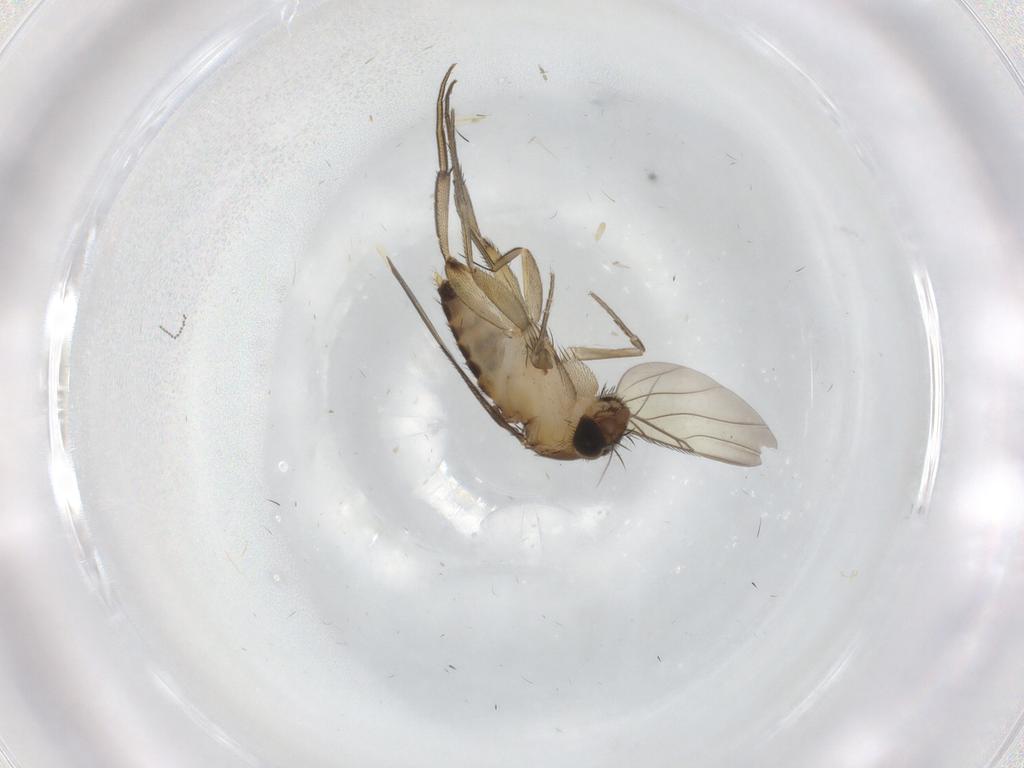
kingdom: Animalia
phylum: Arthropoda
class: Insecta
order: Diptera
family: Phoridae
